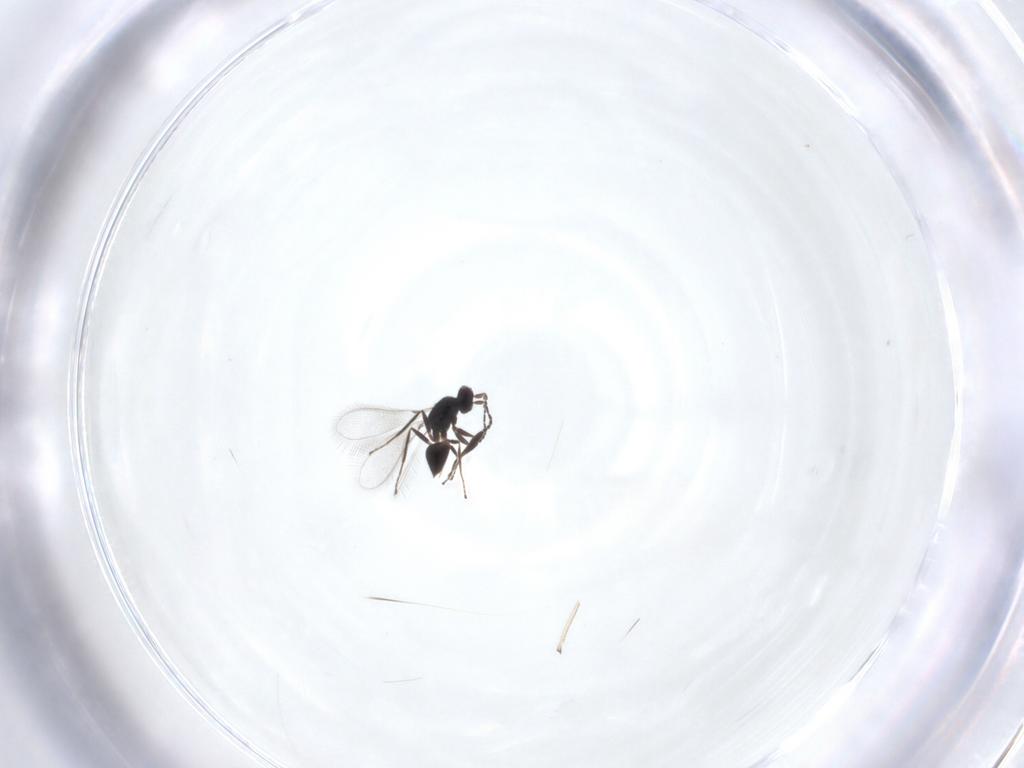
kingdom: Animalia
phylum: Arthropoda
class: Insecta
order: Hymenoptera
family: Mymaridae
